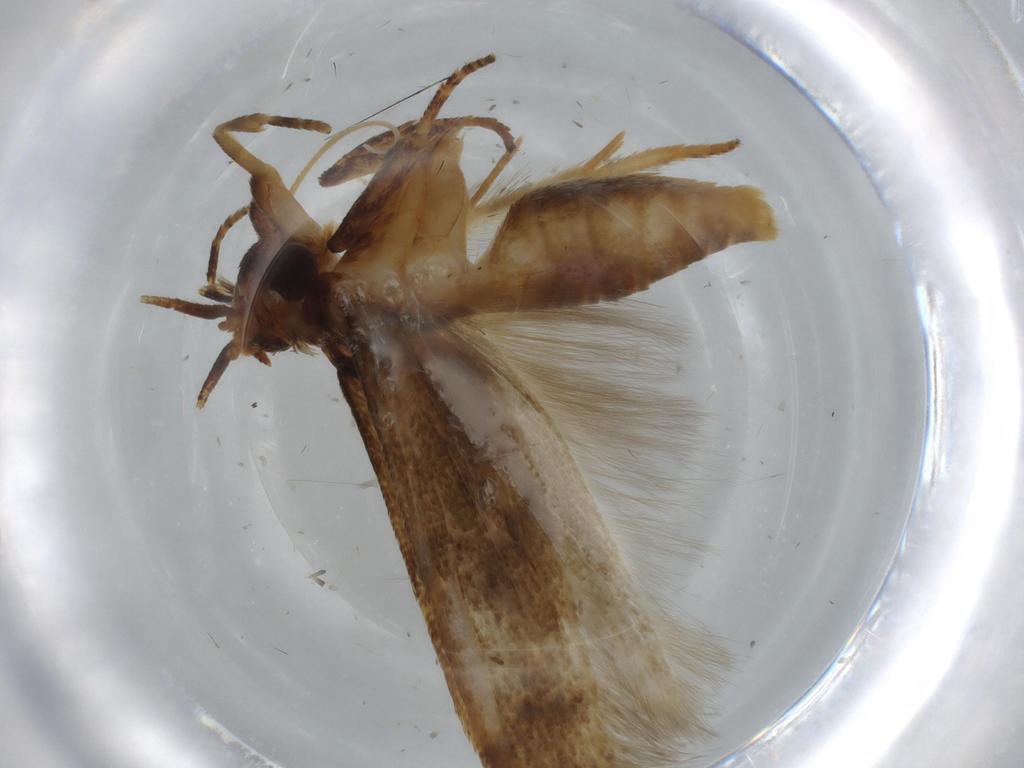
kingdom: Animalia
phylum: Arthropoda
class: Insecta
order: Lepidoptera
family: Blastobasidae
